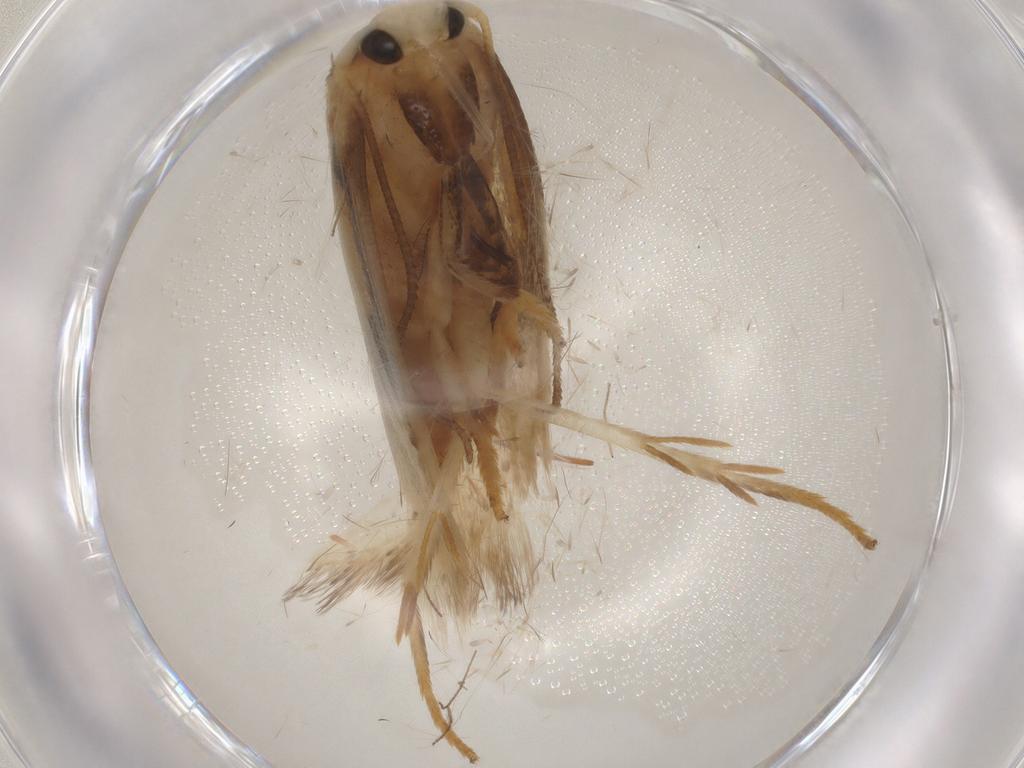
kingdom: Animalia
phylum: Arthropoda
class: Insecta
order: Lepidoptera
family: Geometridae
